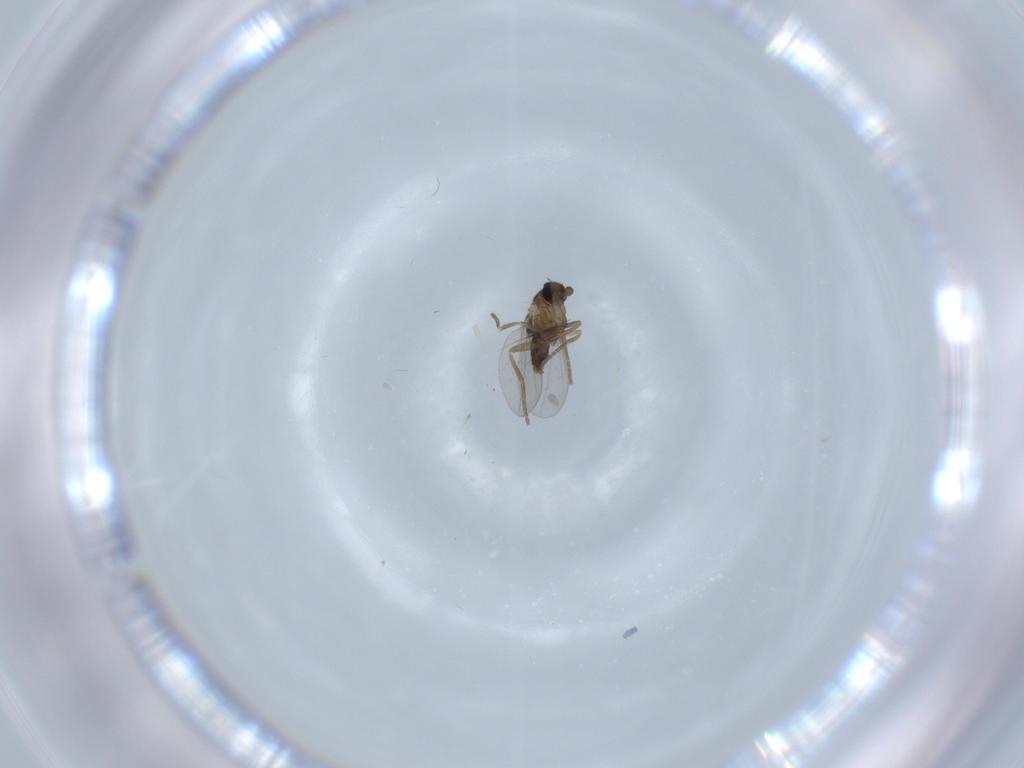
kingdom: Animalia
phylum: Arthropoda
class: Insecta
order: Diptera
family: Phoridae
